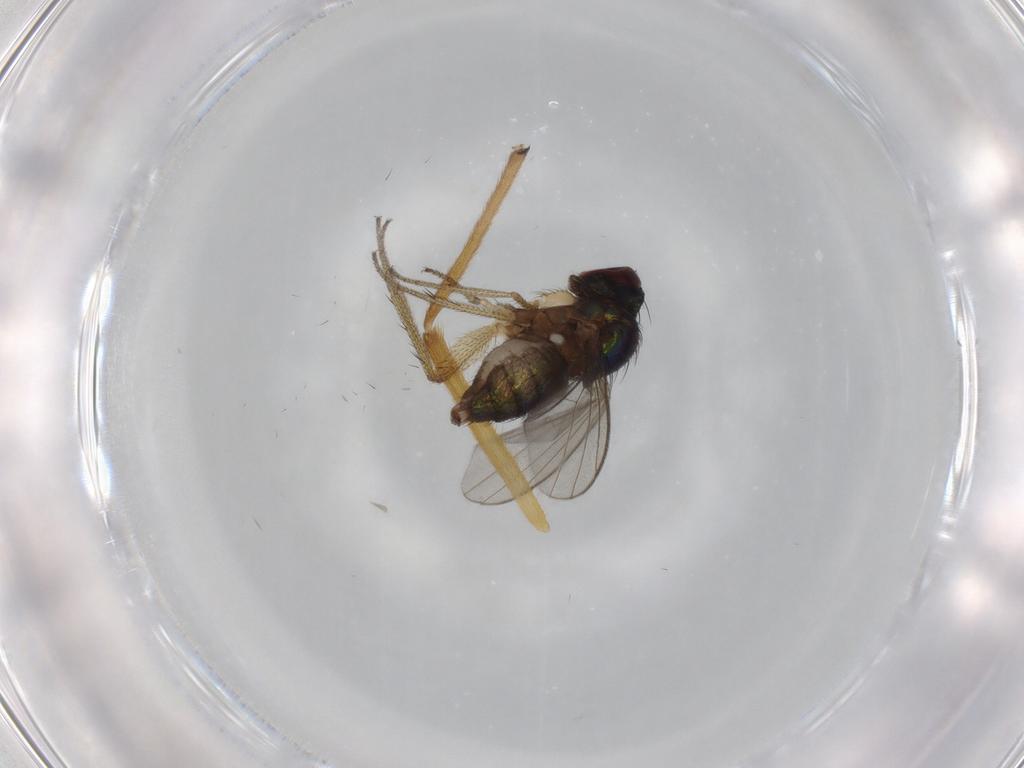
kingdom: Animalia
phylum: Arthropoda
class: Insecta
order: Diptera
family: Dolichopodidae
